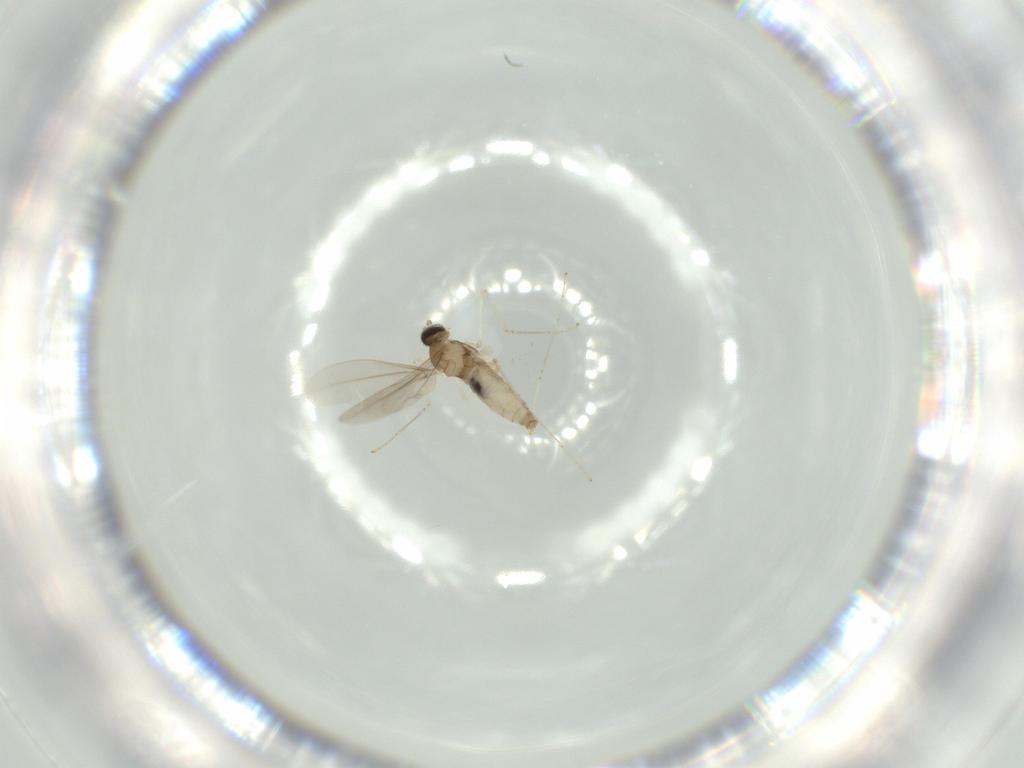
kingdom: Animalia
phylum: Arthropoda
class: Insecta
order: Diptera
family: Cecidomyiidae
